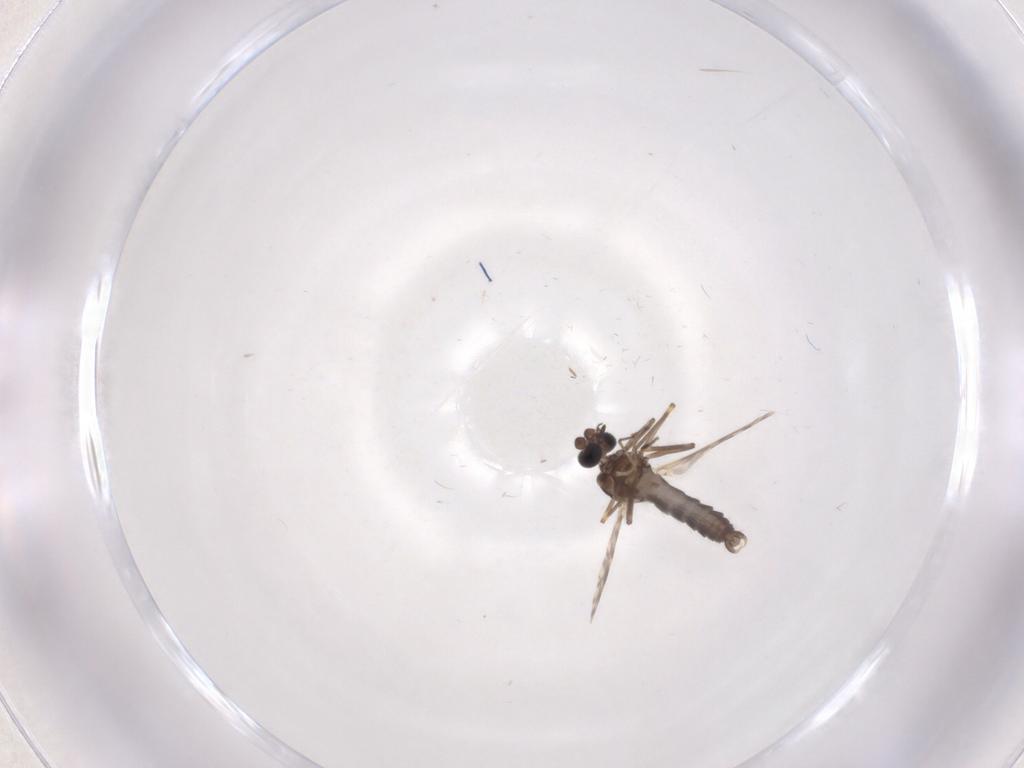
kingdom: Animalia
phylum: Arthropoda
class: Insecta
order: Diptera
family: Ceratopogonidae
